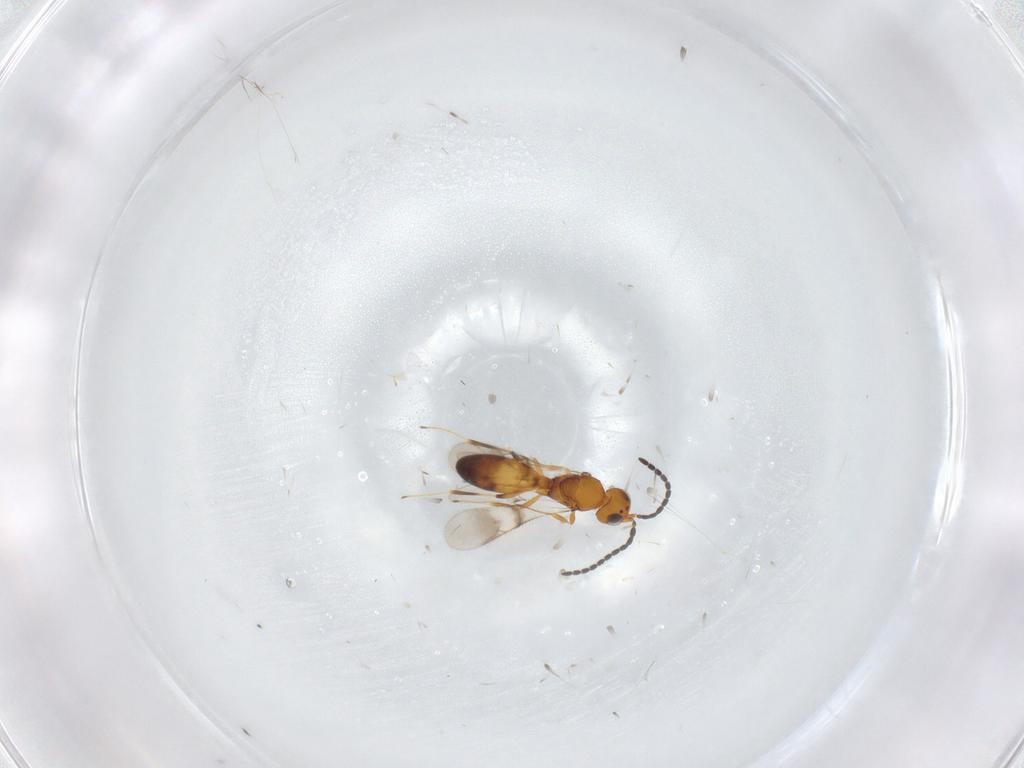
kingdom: Animalia
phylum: Arthropoda
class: Insecta
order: Hymenoptera
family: Scelionidae
